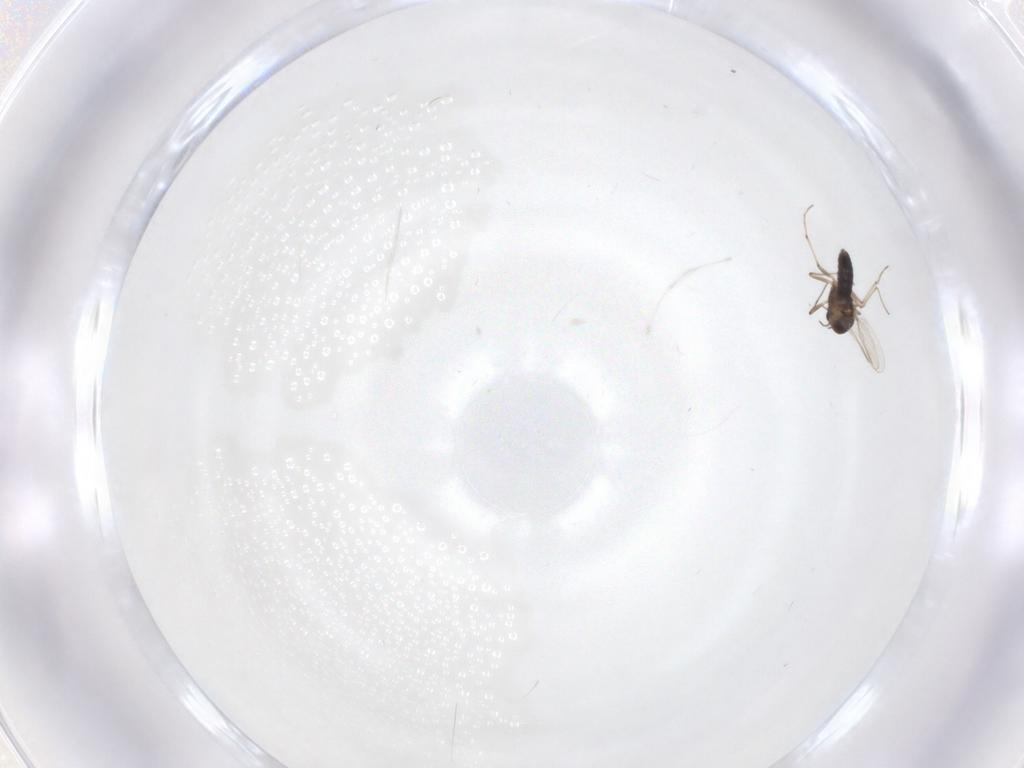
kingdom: Animalia
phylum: Arthropoda
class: Insecta
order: Diptera
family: Chironomidae
